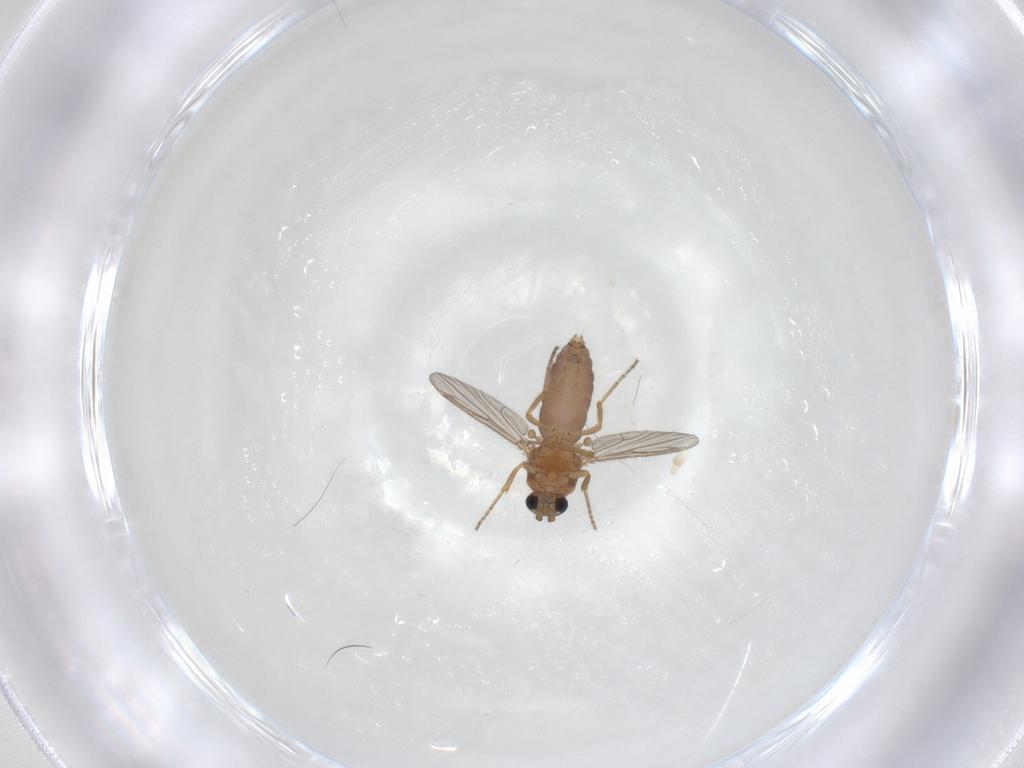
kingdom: Animalia
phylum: Arthropoda
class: Insecta
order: Diptera
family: Ceratopogonidae
